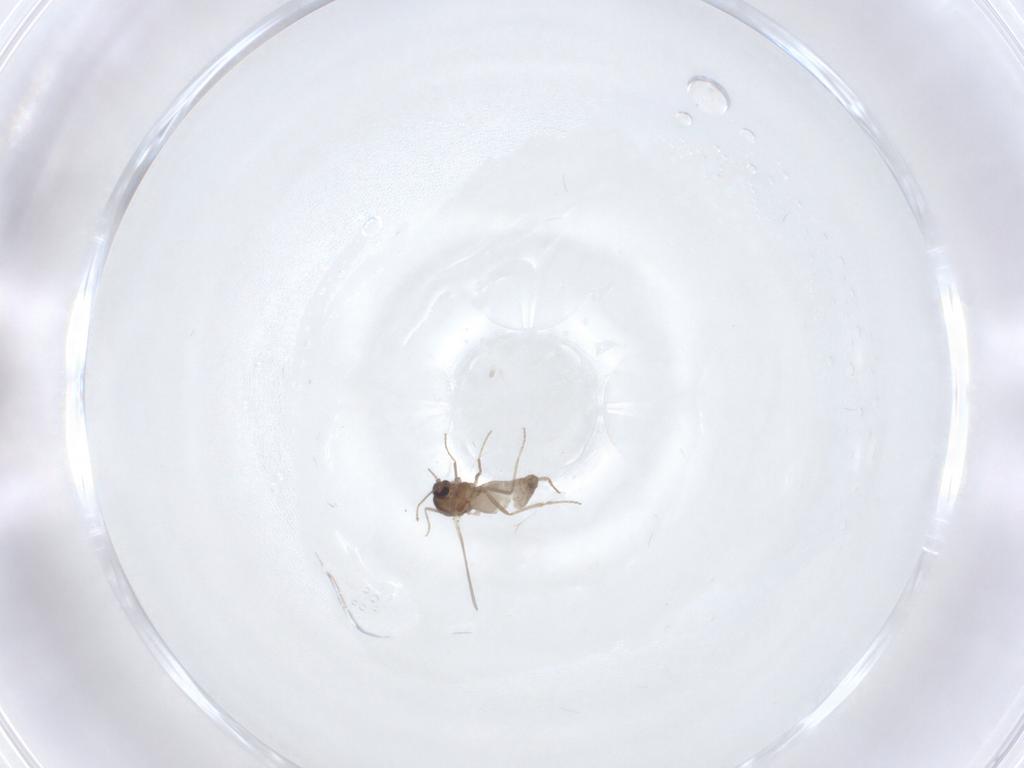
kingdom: Animalia
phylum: Arthropoda
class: Insecta
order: Diptera
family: Ceratopogonidae
